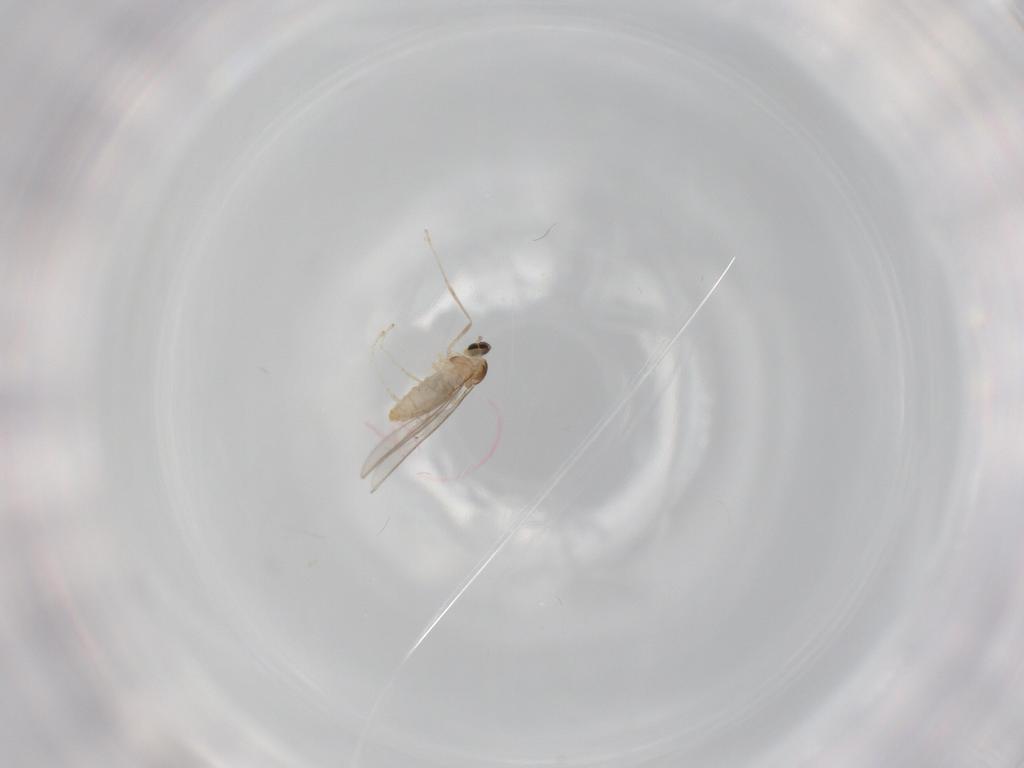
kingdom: Animalia
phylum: Arthropoda
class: Insecta
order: Diptera
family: Cecidomyiidae
